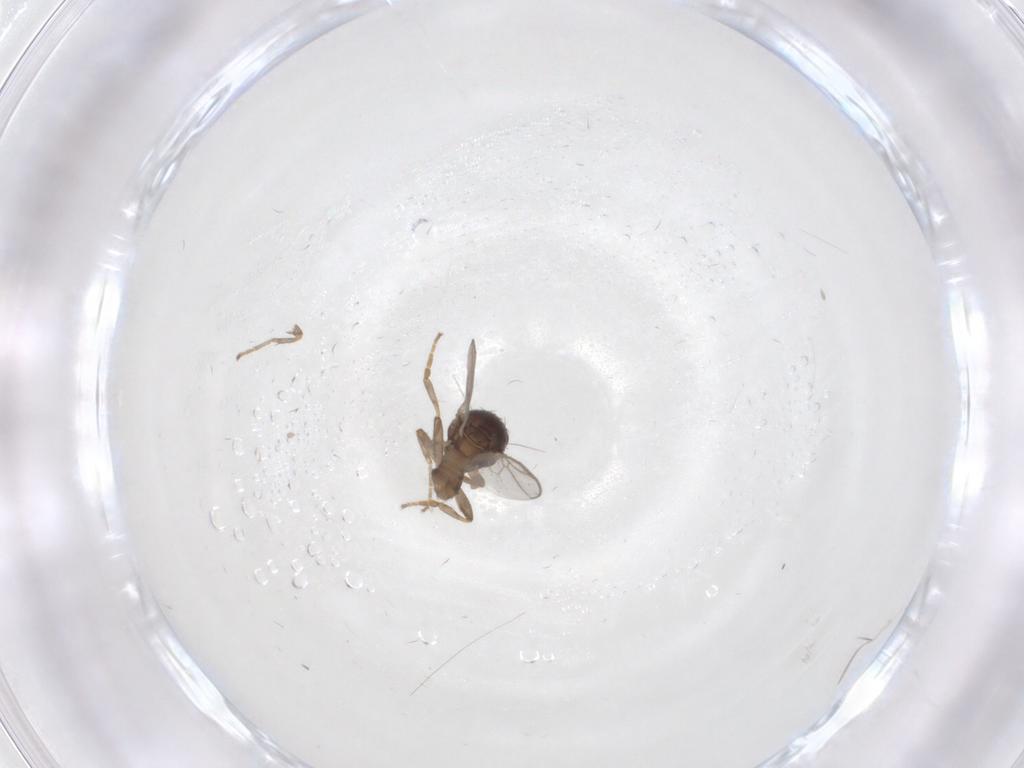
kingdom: Animalia
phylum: Arthropoda
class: Insecta
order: Diptera
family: Sphaeroceridae
